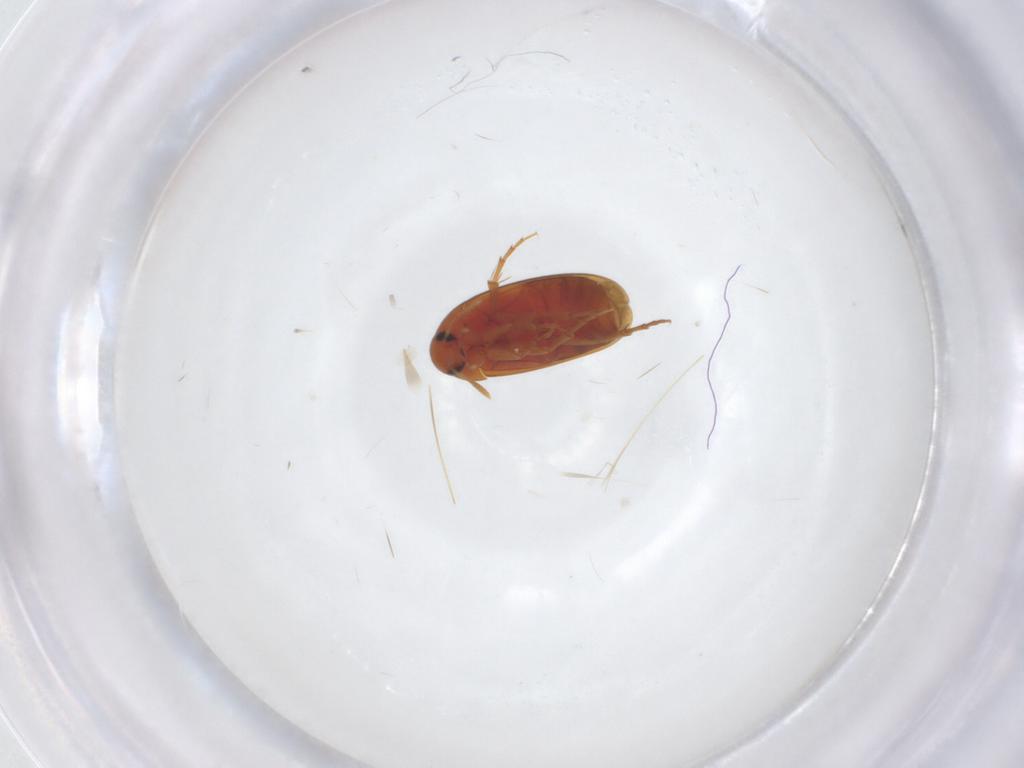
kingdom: Animalia
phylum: Arthropoda
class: Insecta
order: Coleoptera
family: Scraptiidae
